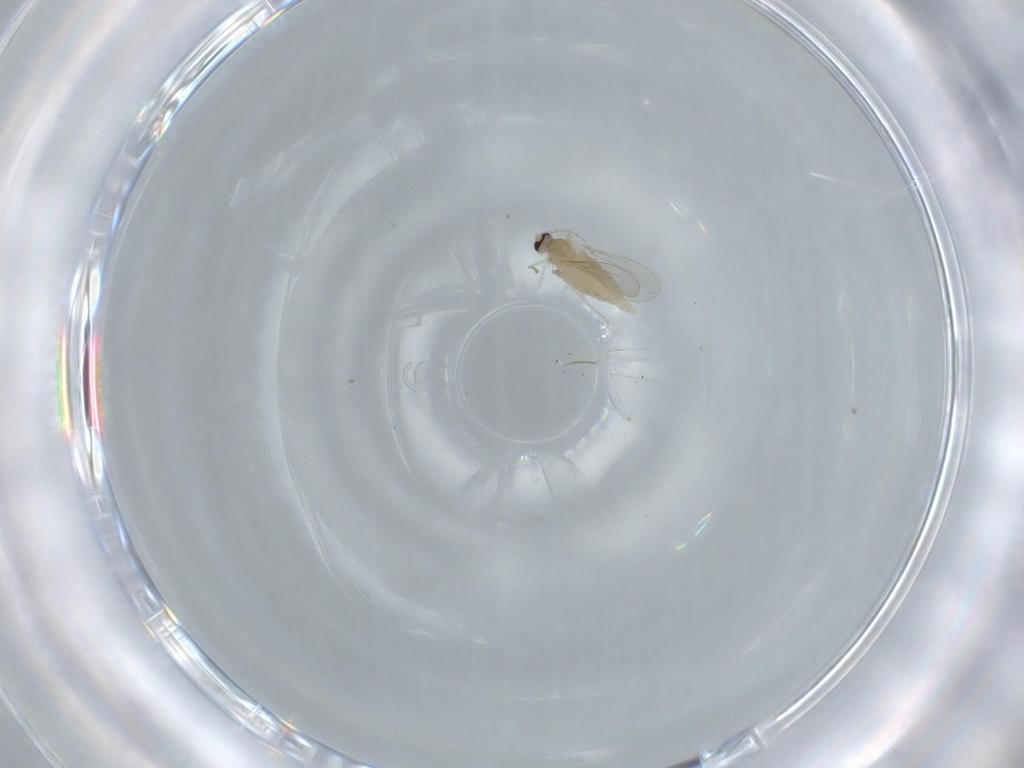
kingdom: Animalia
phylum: Arthropoda
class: Insecta
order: Diptera
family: Cecidomyiidae
